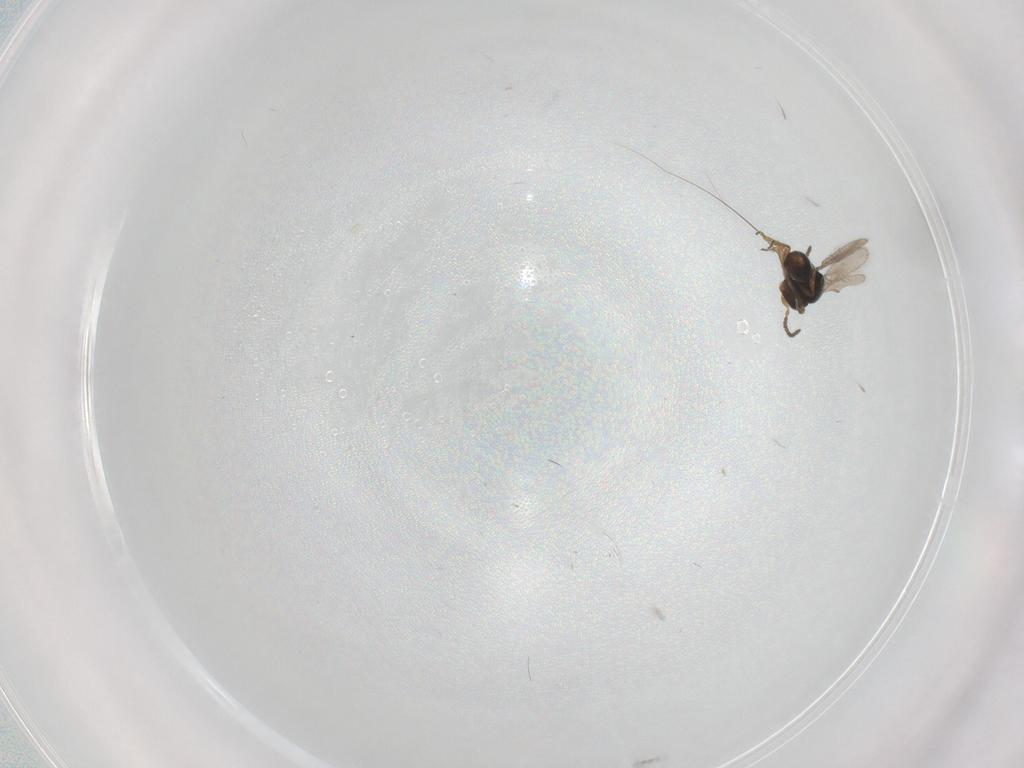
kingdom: Animalia
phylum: Arthropoda
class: Insecta
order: Hymenoptera
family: Scelionidae
